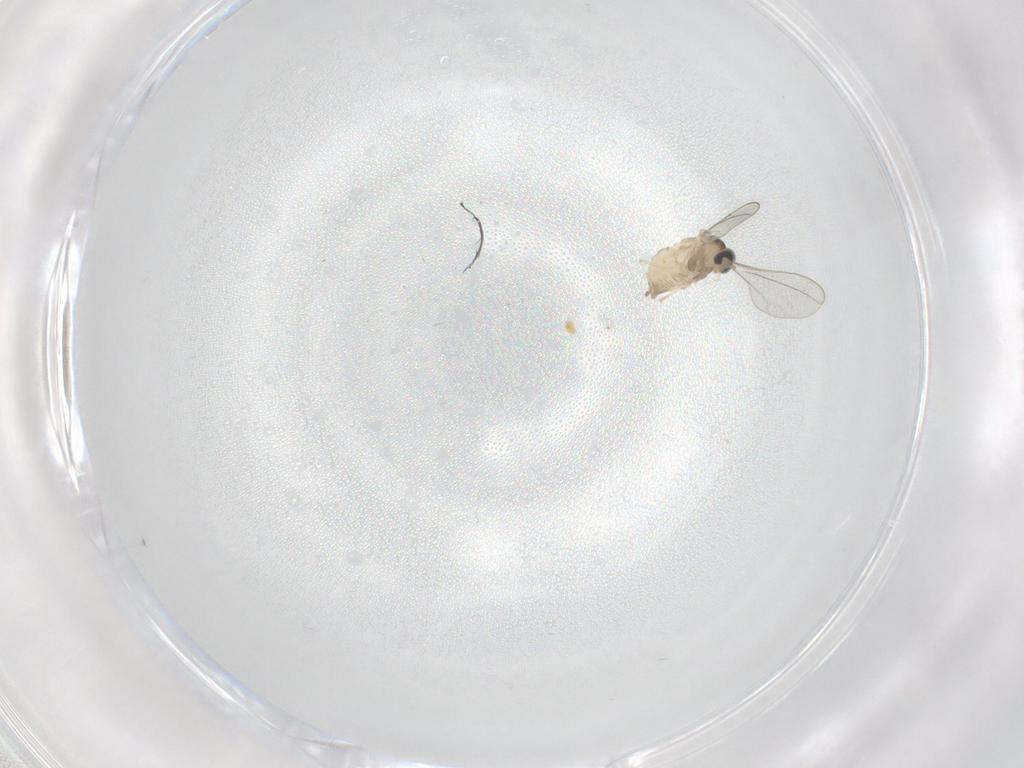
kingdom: Animalia
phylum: Arthropoda
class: Insecta
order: Diptera
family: Cecidomyiidae
